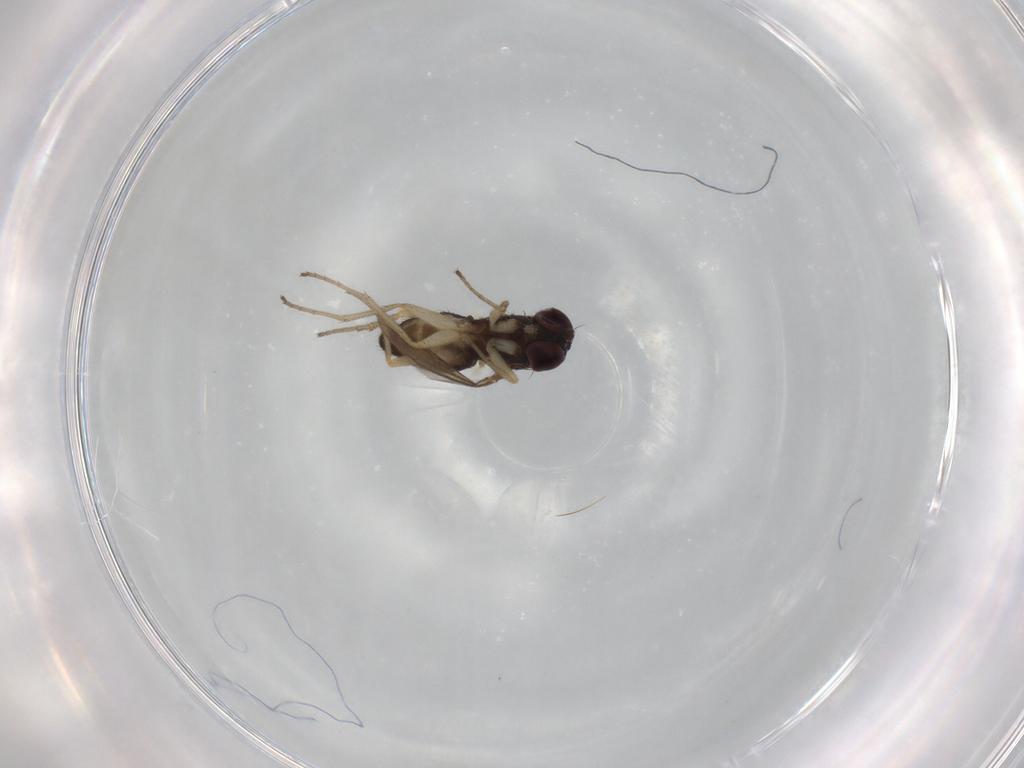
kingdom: Animalia
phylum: Arthropoda
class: Insecta
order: Diptera
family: Dolichopodidae
